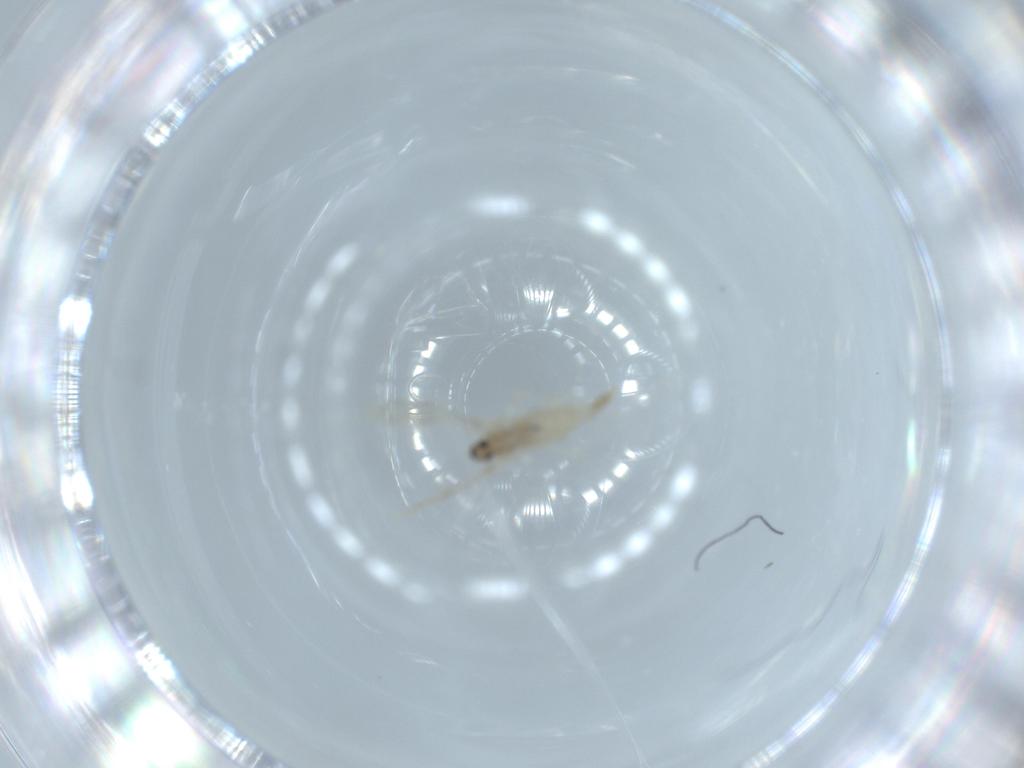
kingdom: Animalia
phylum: Arthropoda
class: Insecta
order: Diptera
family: Cecidomyiidae
